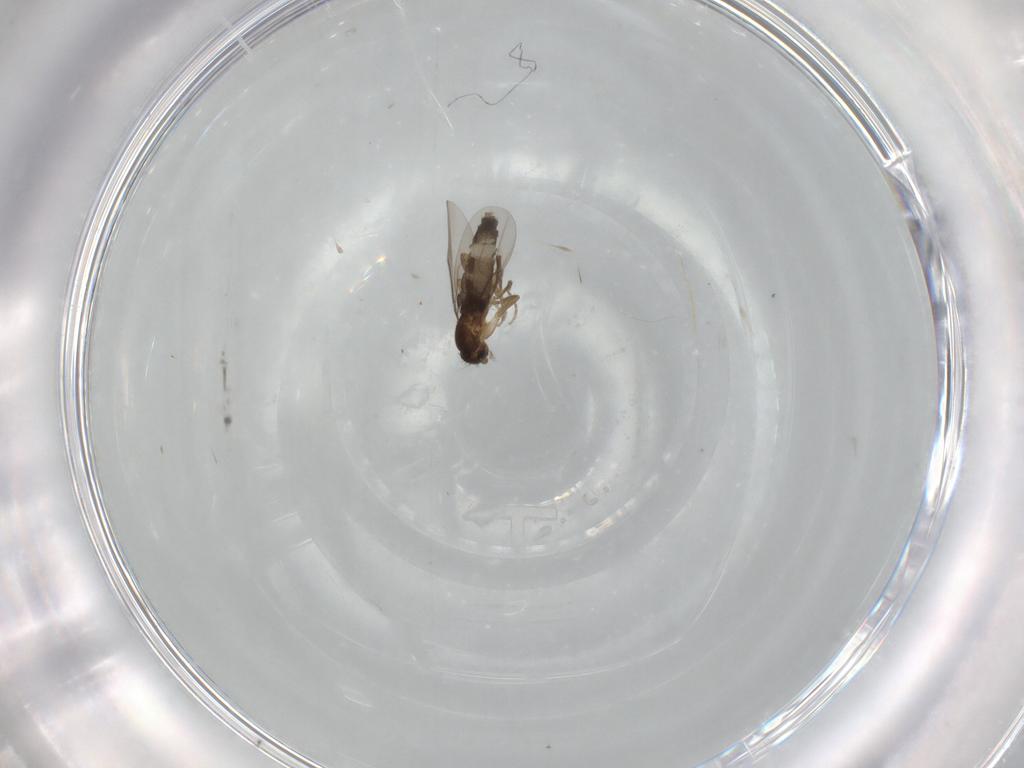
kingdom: Animalia
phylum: Arthropoda
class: Insecta
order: Diptera
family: Phoridae
